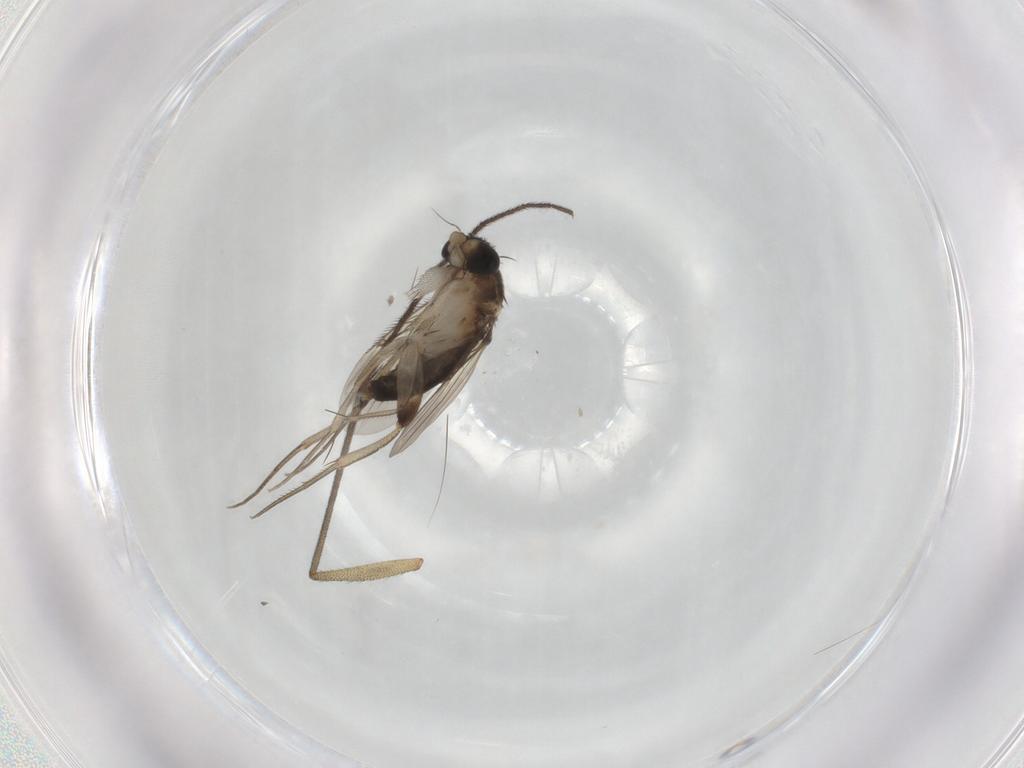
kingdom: Animalia
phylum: Arthropoda
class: Insecta
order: Diptera
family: Phoridae
